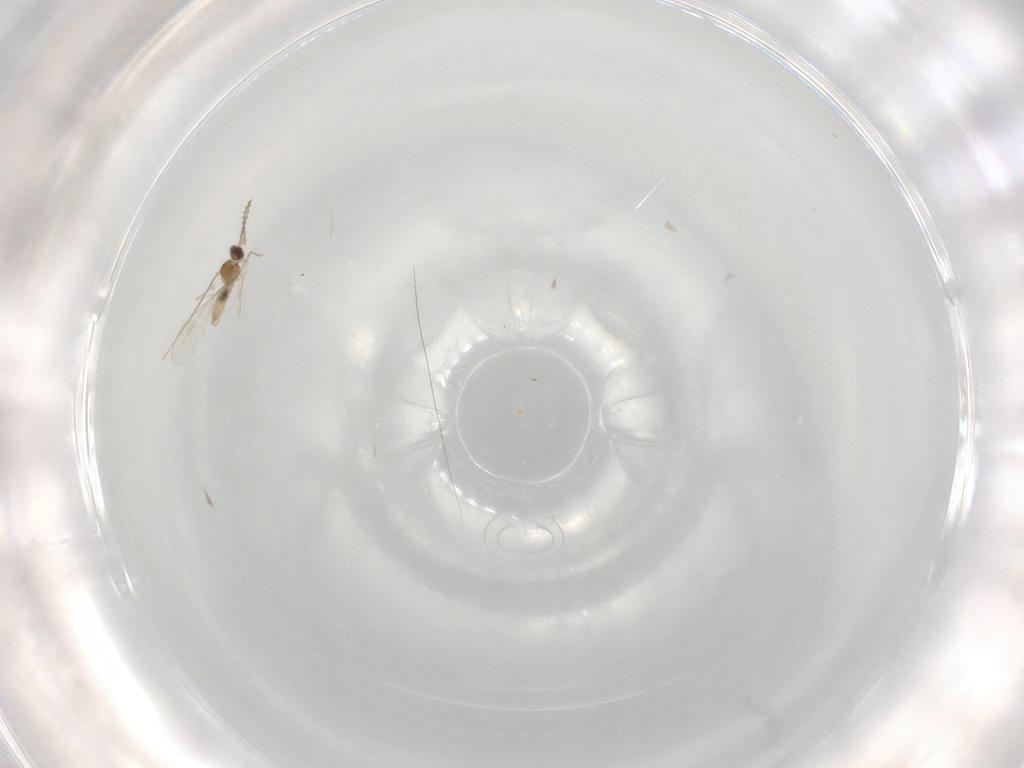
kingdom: Animalia
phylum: Arthropoda
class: Insecta
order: Diptera
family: Cecidomyiidae
